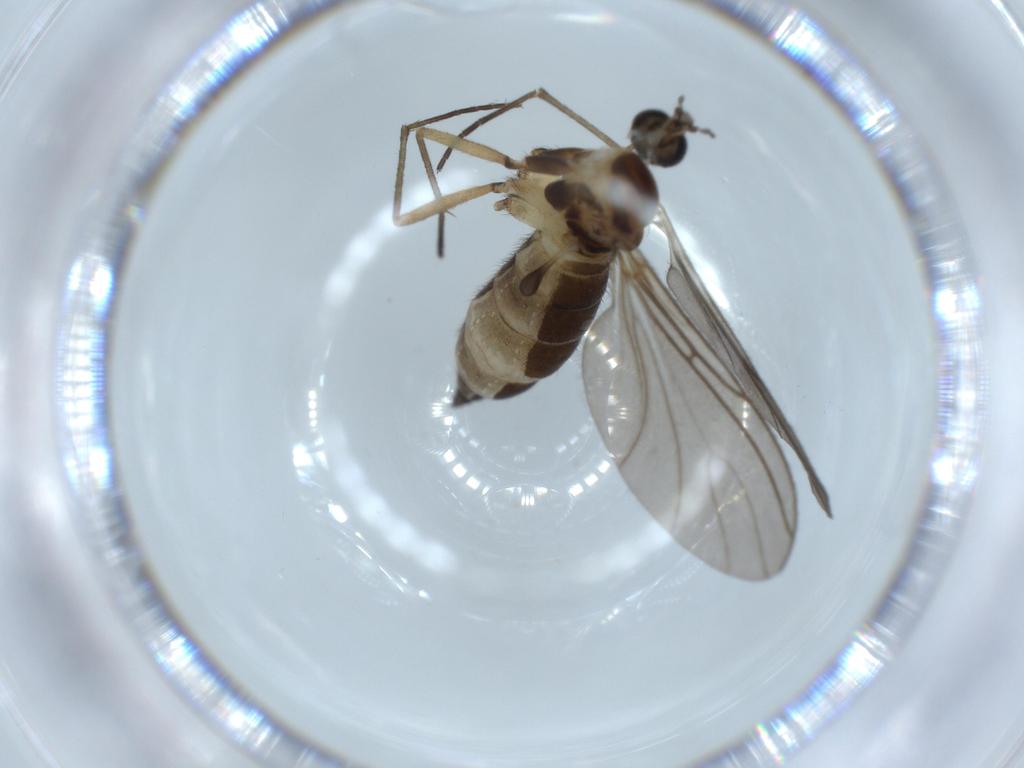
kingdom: Animalia
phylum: Arthropoda
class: Insecta
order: Diptera
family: Sciaridae
